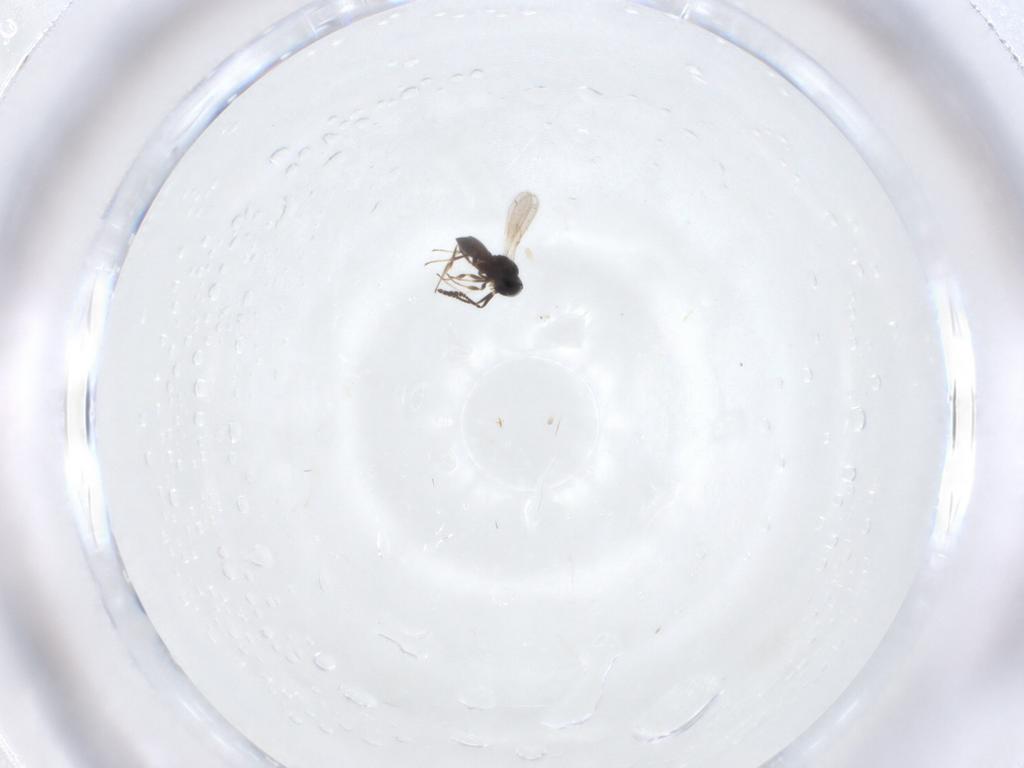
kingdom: Animalia
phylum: Arthropoda
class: Insecta
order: Hymenoptera
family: Scelionidae
